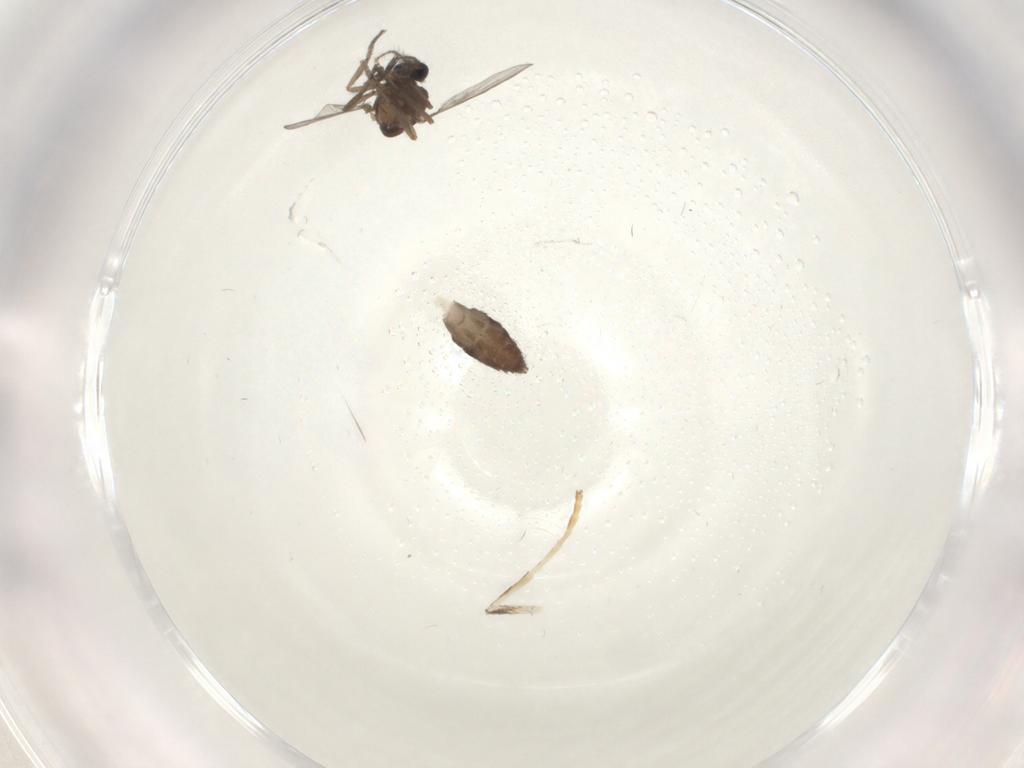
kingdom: Animalia
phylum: Arthropoda
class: Insecta
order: Diptera
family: Ceratopogonidae
